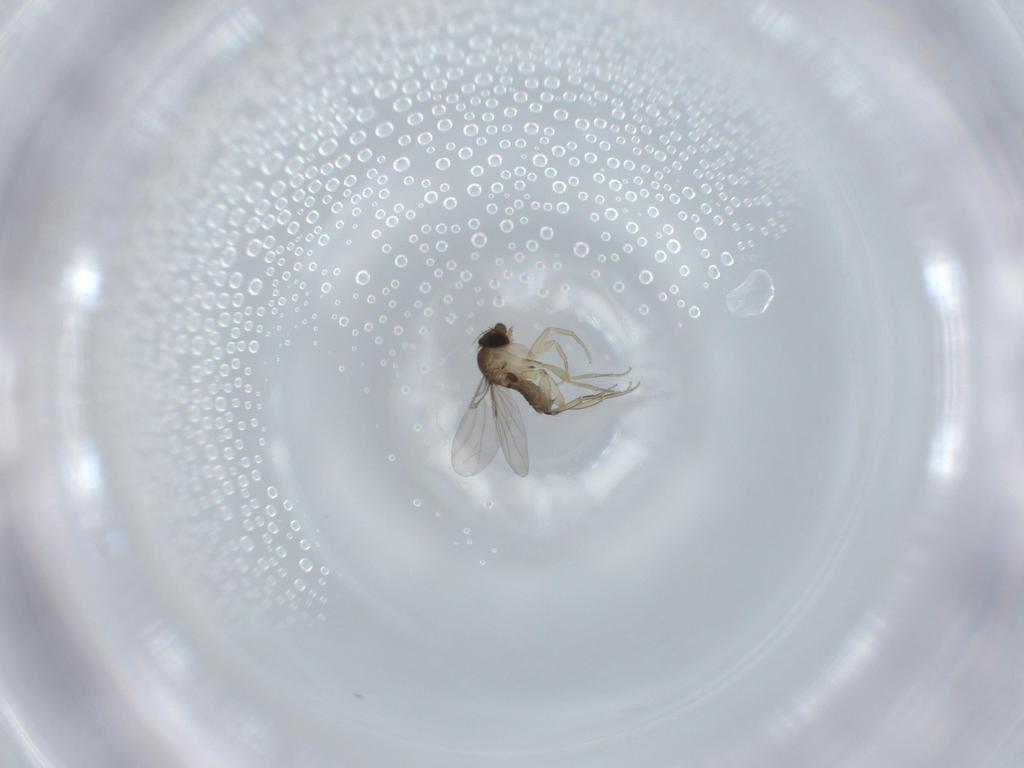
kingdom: Animalia
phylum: Arthropoda
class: Insecta
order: Diptera
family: Phoridae
